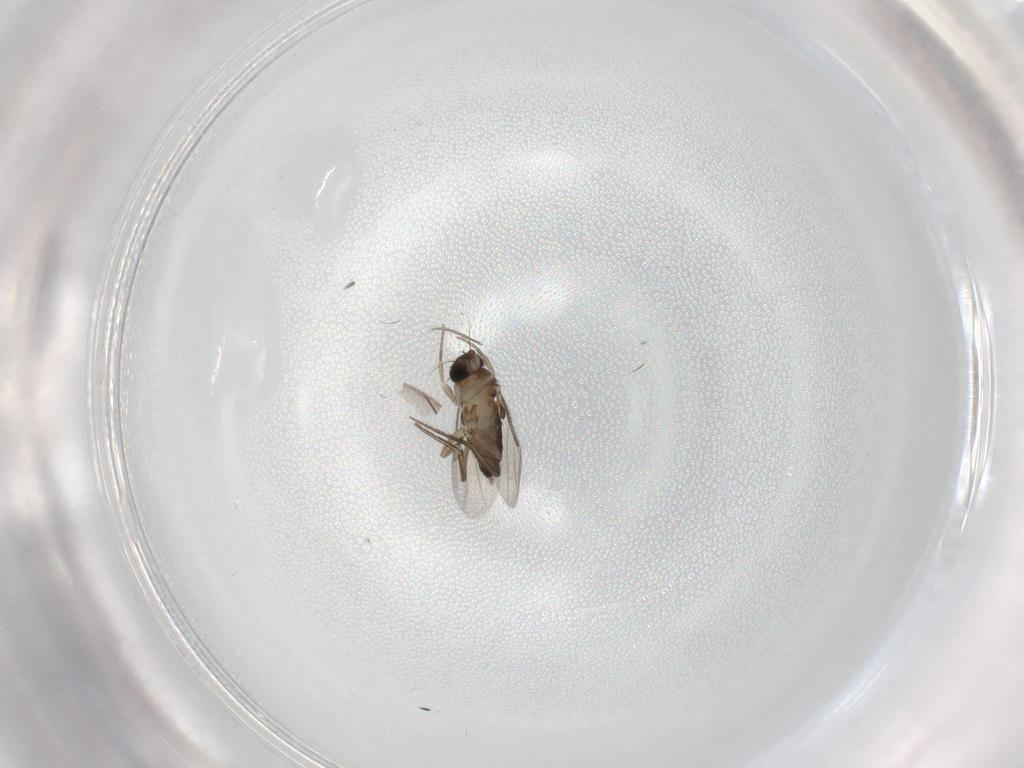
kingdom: Animalia
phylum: Arthropoda
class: Insecta
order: Diptera
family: Phoridae
